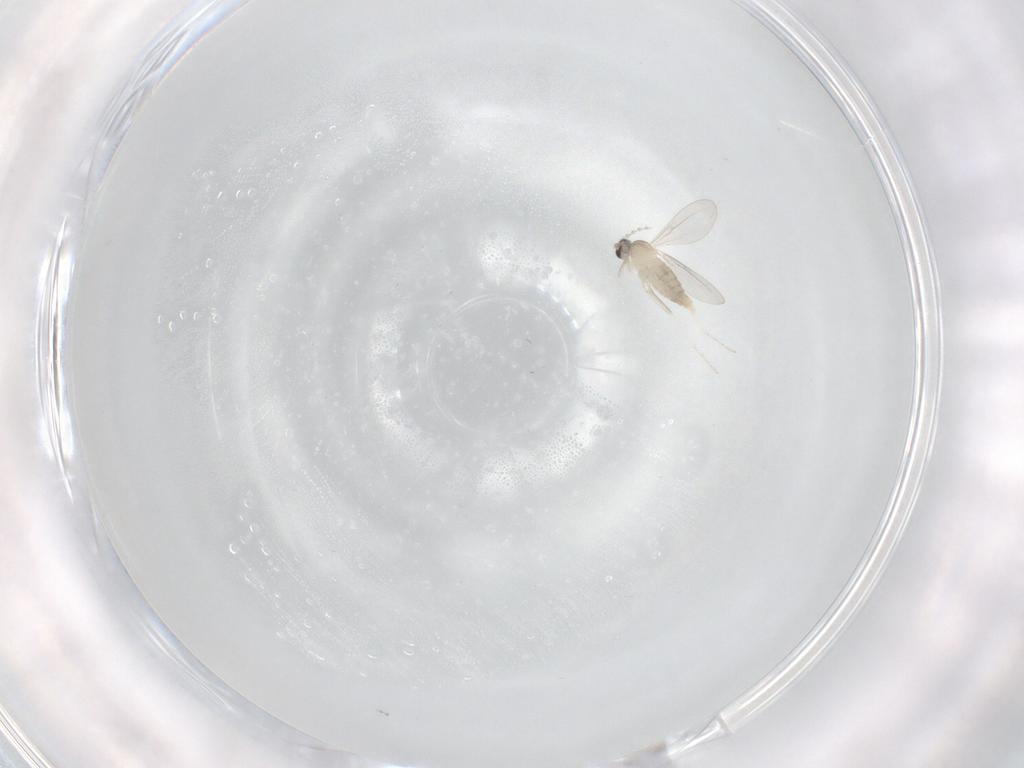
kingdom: Animalia
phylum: Arthropoda
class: Insecta
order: Diptera
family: Cecidomyiidae
